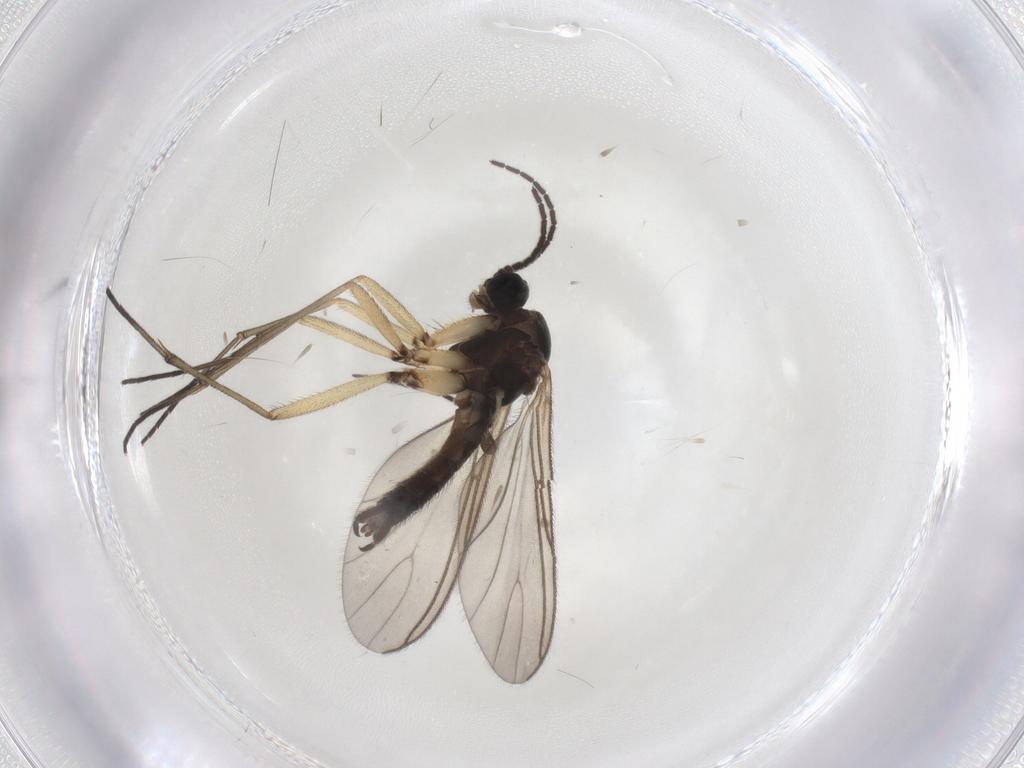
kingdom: Animalia
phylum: Arthropoda
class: Insecta
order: Diptera
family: Sciaridae
